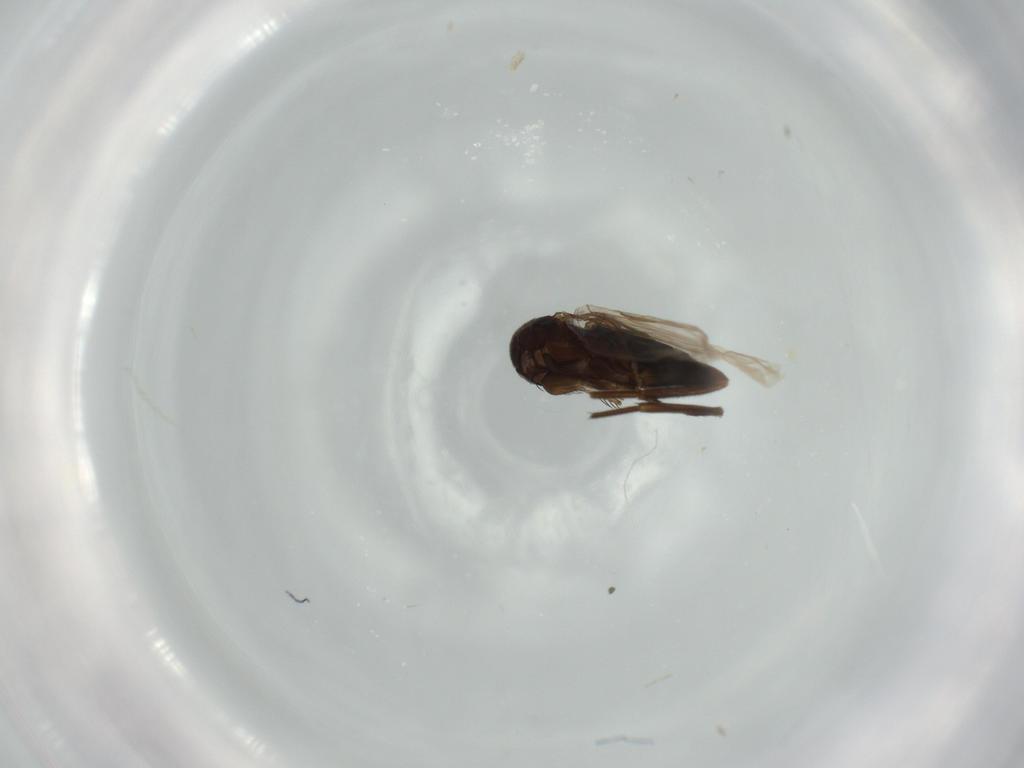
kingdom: Animalia
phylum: Arthropoda
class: Insecta
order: Diptera
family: Phoridae
